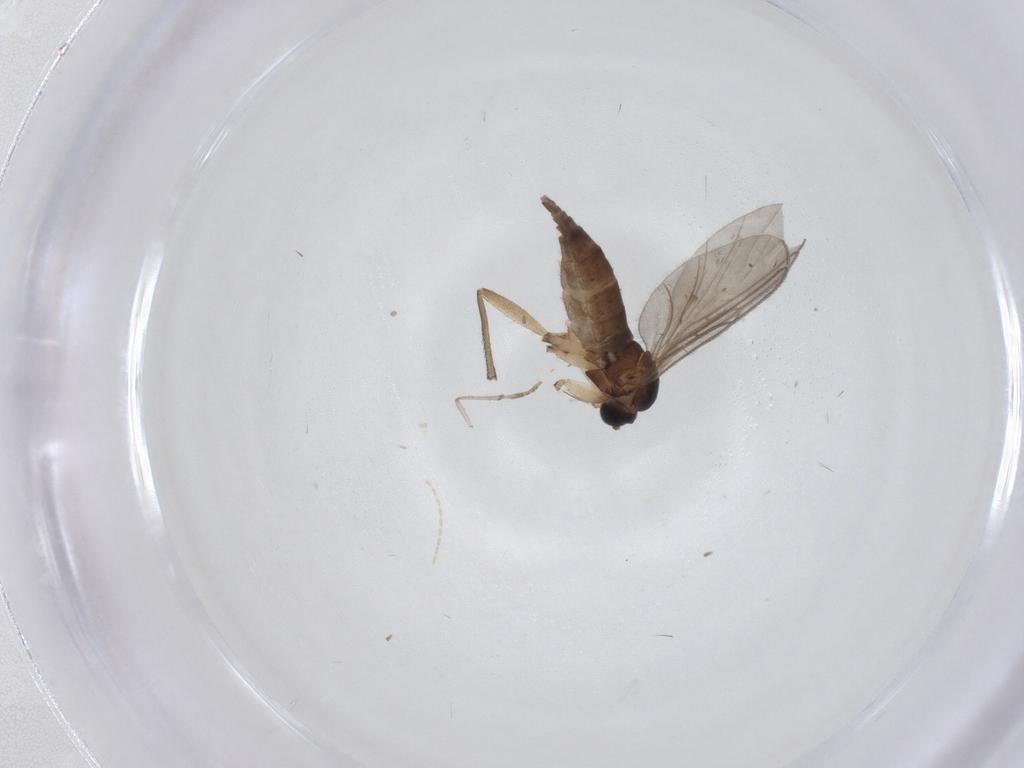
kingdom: Animalia
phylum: Arthropoda
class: Insecta
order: Diptera
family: Sciaridae
